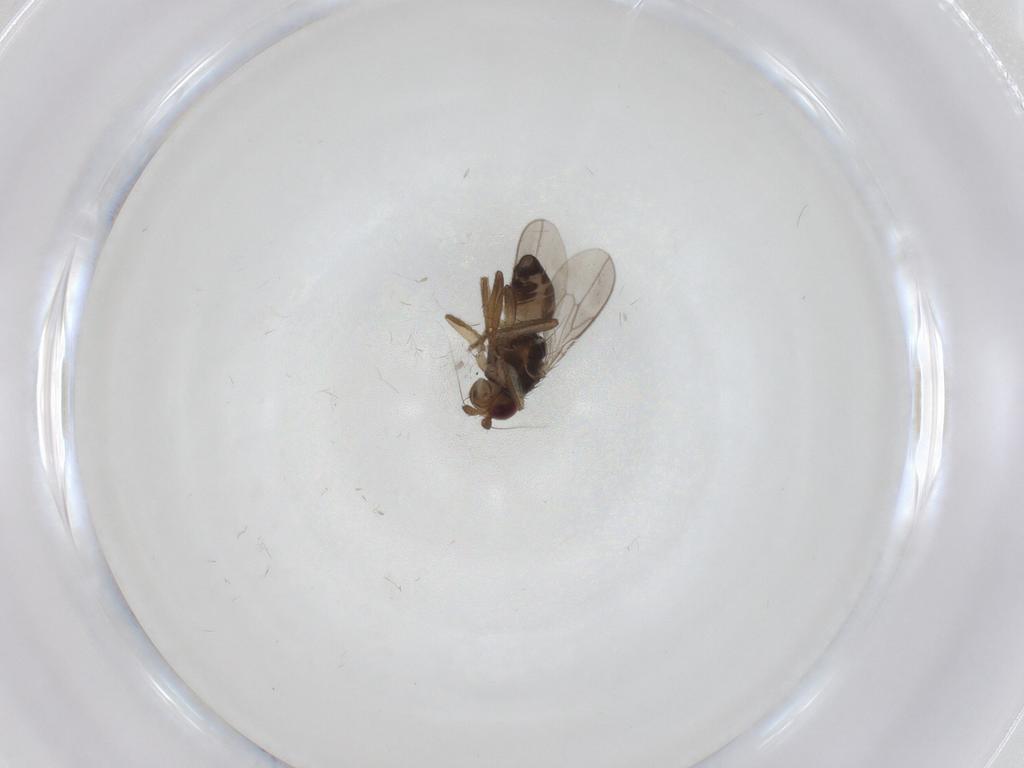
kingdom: Animalia
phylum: Arthropoda
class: Insecta
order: Diptera
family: Sphaeroceridae
